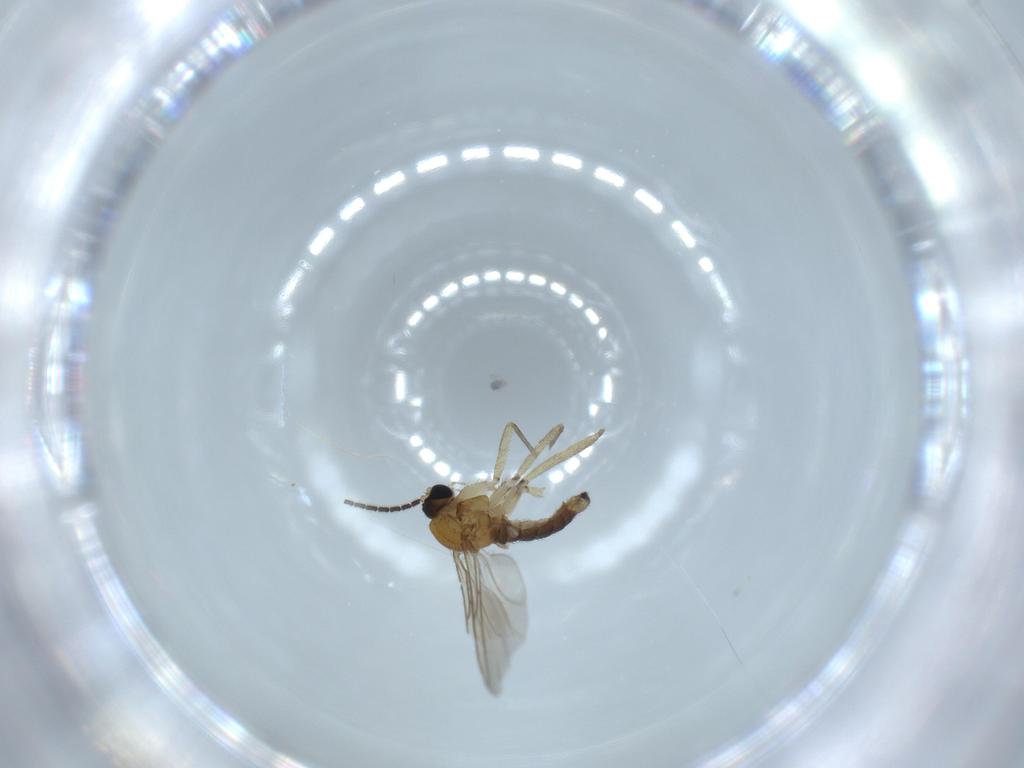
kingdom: Animalia
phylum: Arthropoda
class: Insecta
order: Diptera
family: Sciaridae
